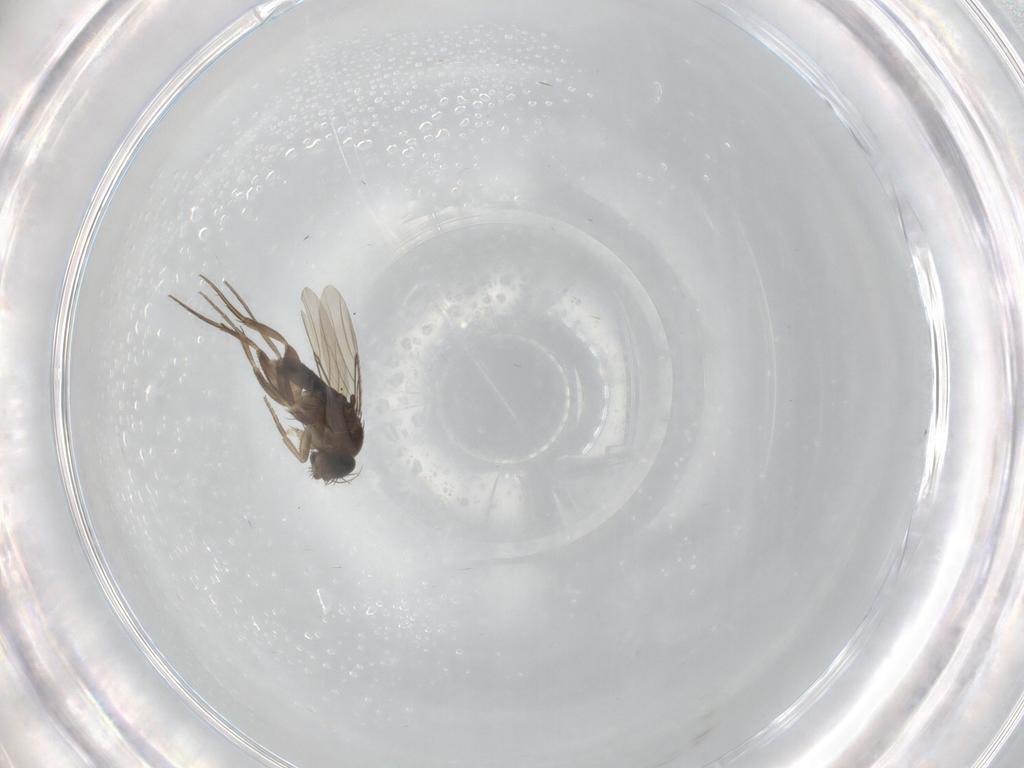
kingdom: Animalia
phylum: Arthropoda
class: Insecta
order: Diptera
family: Phoridae
